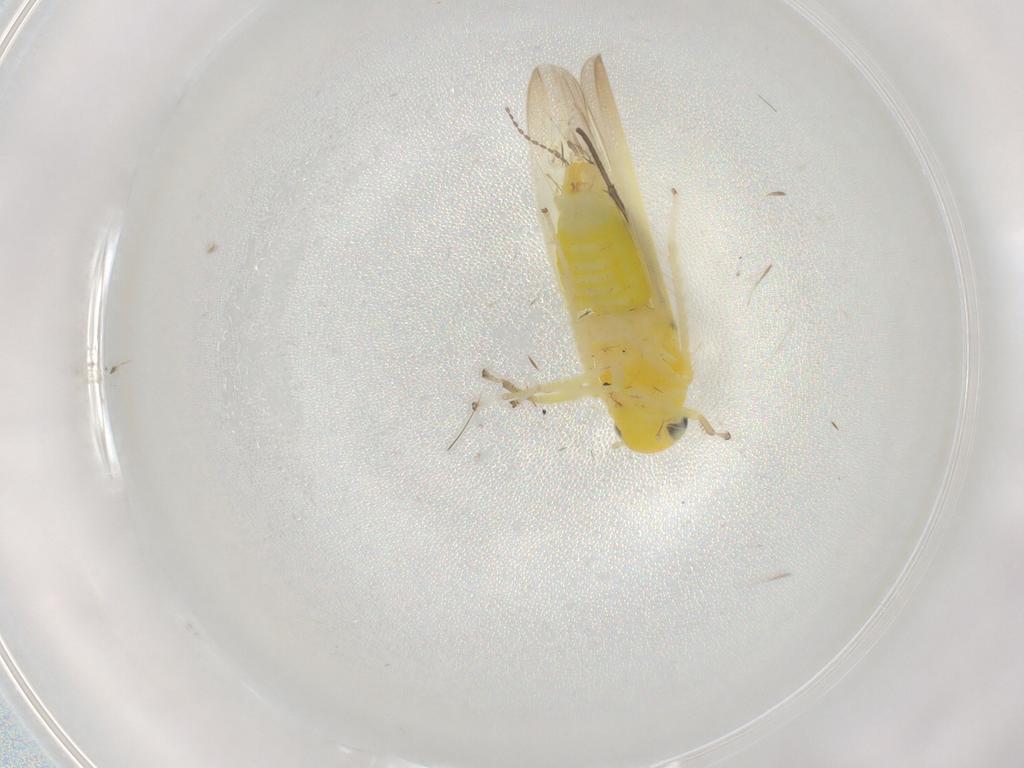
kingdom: Animalia
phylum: Arthropoda
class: Insecta
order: Hemiptera
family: Cicadellidae
